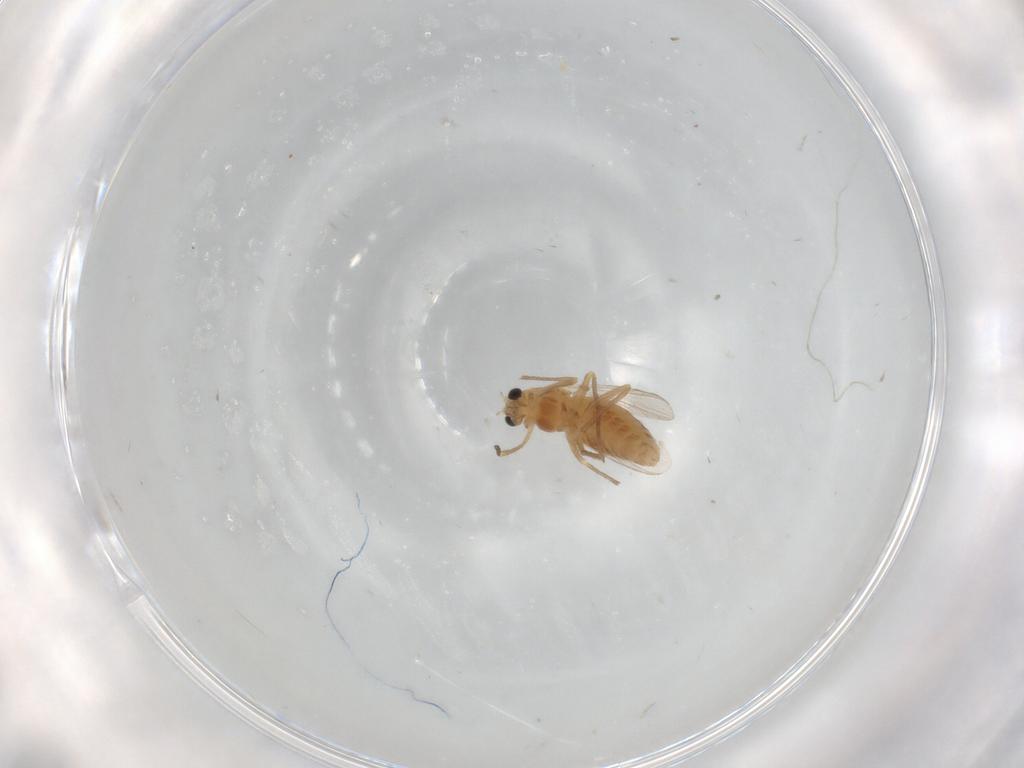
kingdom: Animalia
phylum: Arthropoda
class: Insecta
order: Diptera
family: Chironomidae
